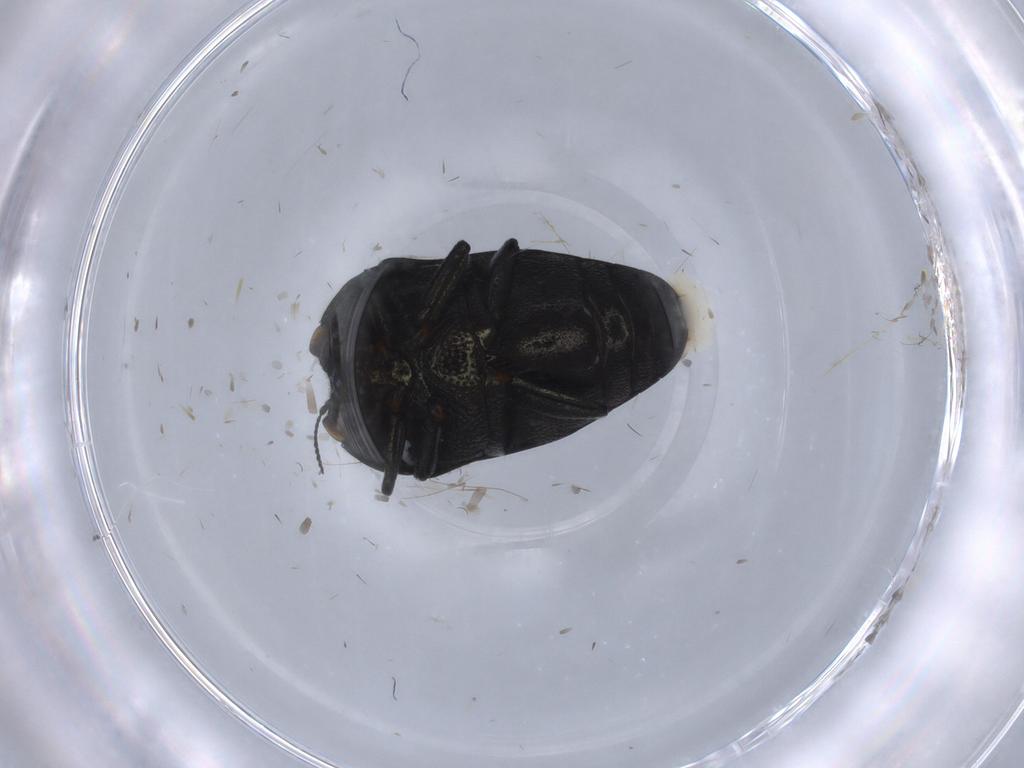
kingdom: Animalia
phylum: Arthropoda
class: Insecta
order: Coleoptera
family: Buprestidae
